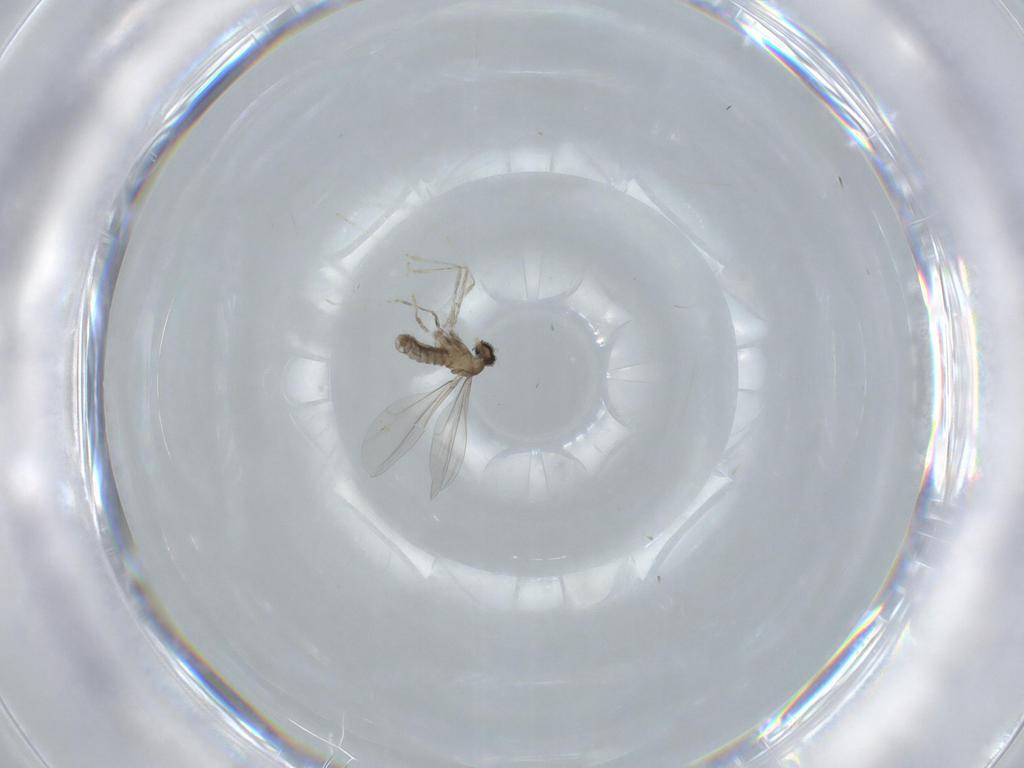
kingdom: Animalia
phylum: Arthropoda
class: Insecta
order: Diptera
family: Cecidomyiidae
